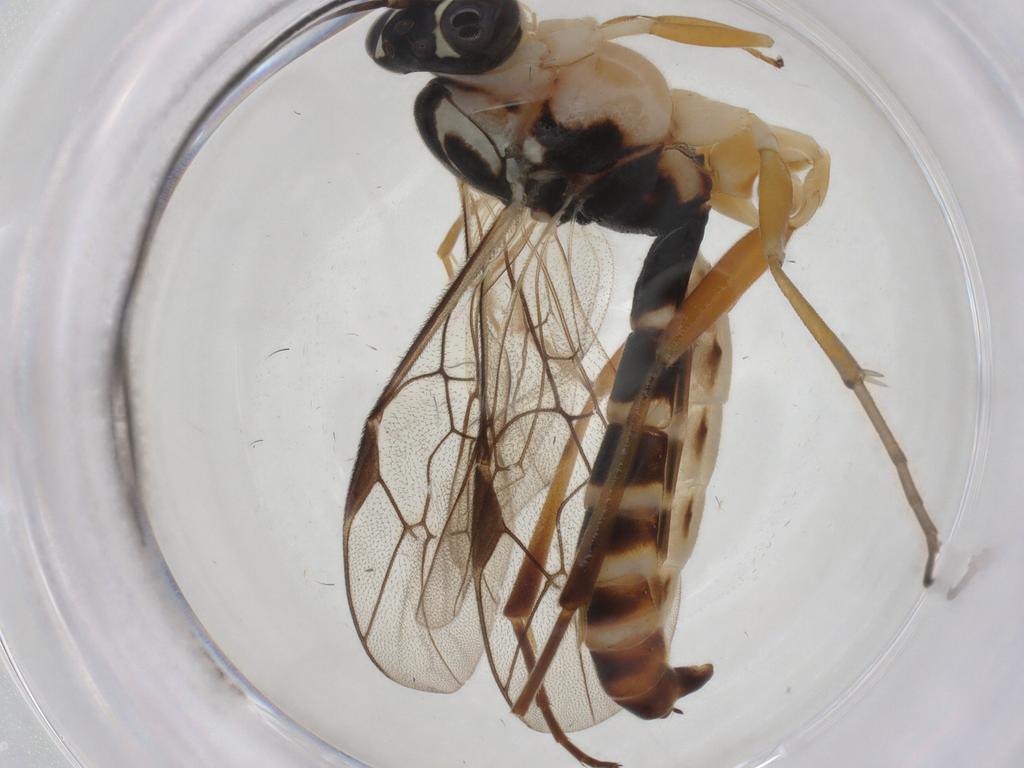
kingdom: Animalia
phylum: Arthropoda
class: Insecta
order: Hymenoptera
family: Ichneumonidae
